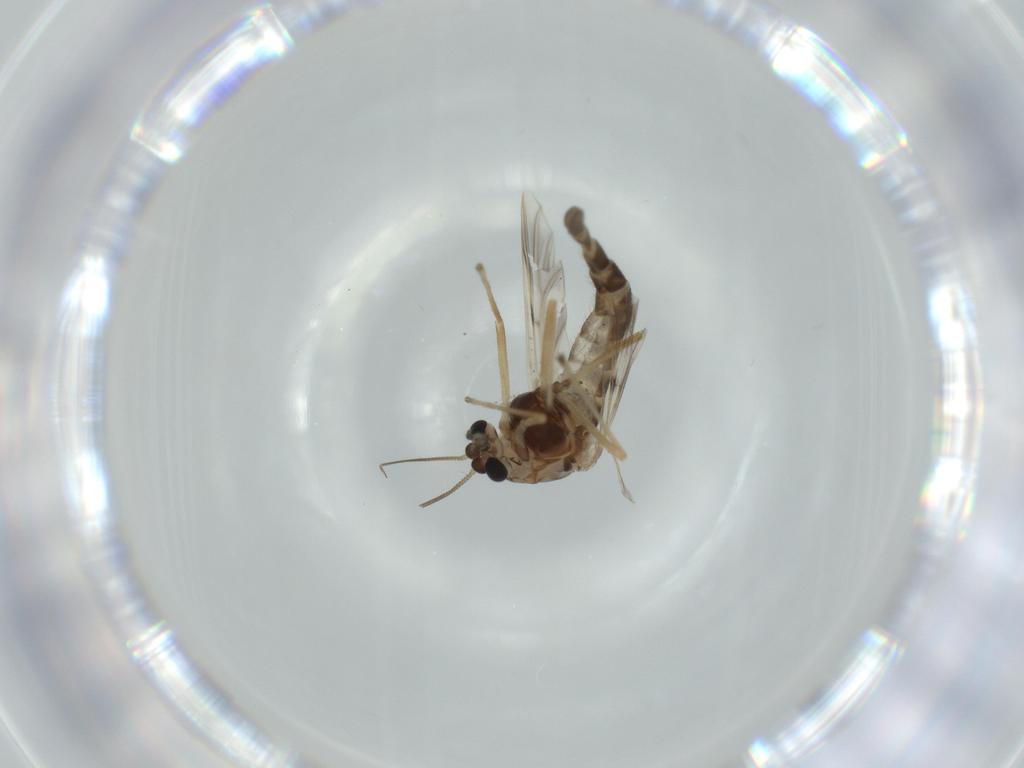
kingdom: Animalia
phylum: Arthropoda
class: Insecta
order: Diptera
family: Chironomidae
